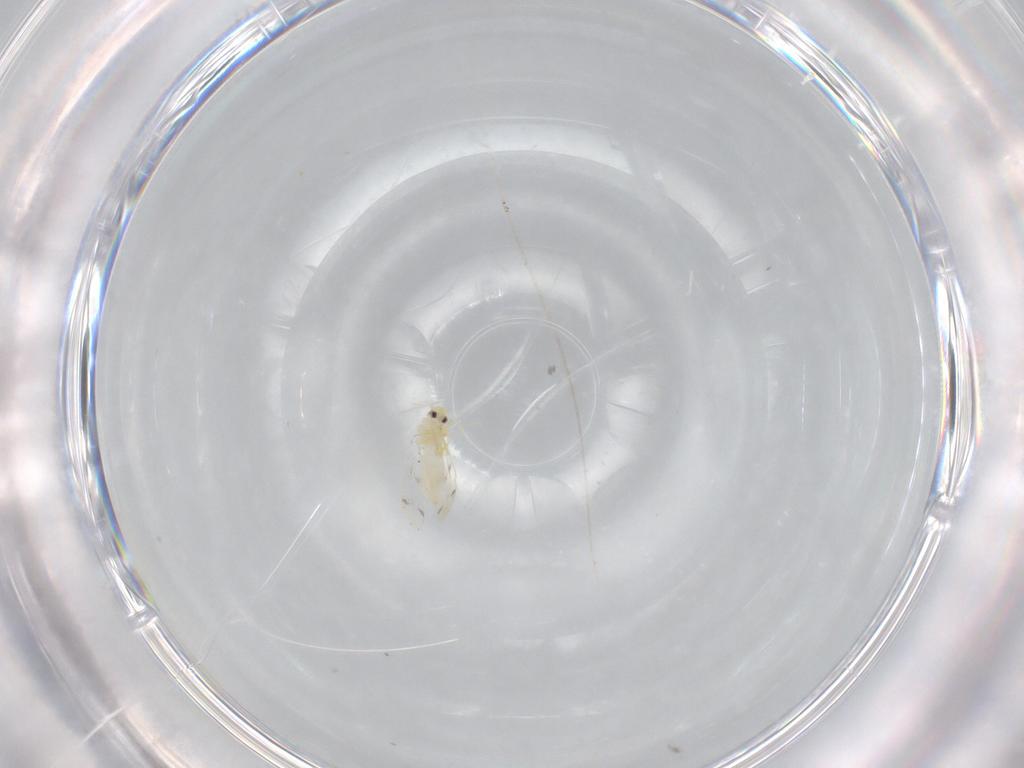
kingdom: Animalia
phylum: Arthropoda
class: Insecta
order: Hemiptera
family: Aleyrodidae
